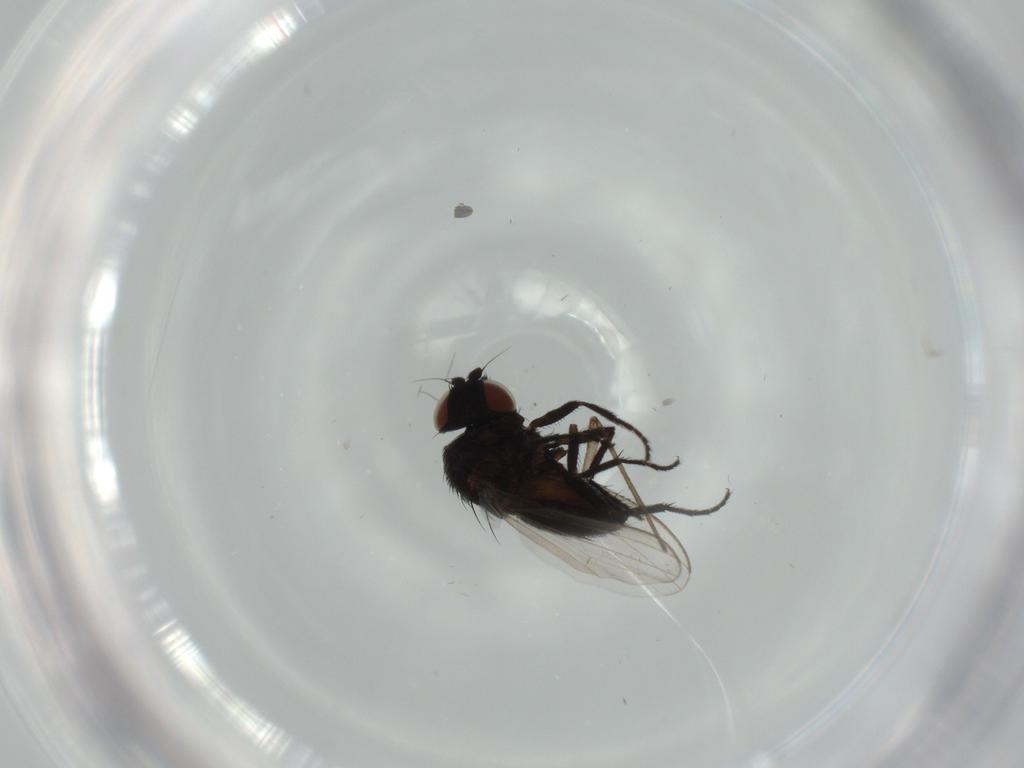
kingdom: Animalia
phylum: Arthropoda
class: Insecta
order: Diptera
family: Milichiidae
